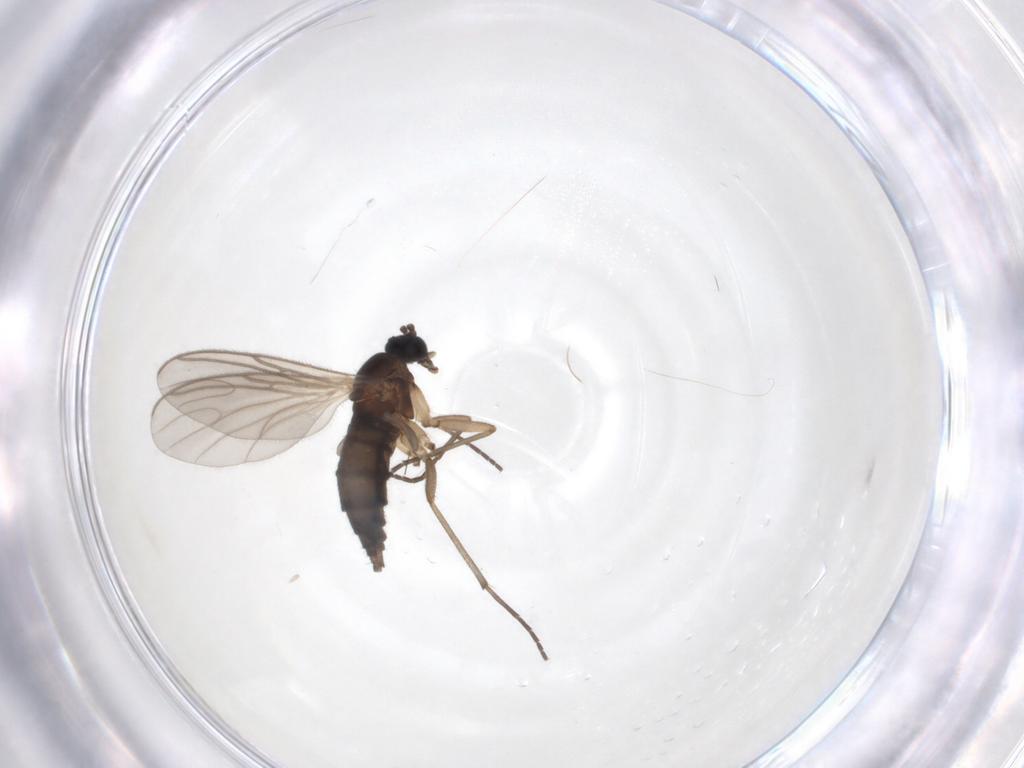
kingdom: Animalia
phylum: Arthropoda
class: Insecta
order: Diptera
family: Sciaridae
